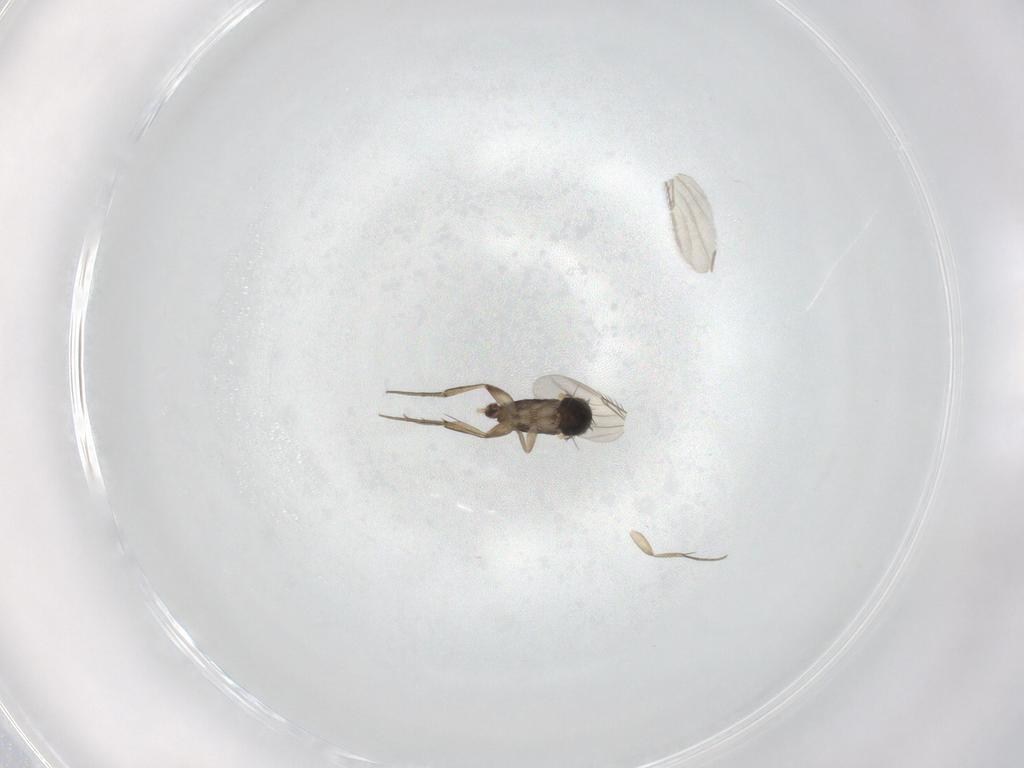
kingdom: Animalia
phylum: Arthropoda
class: Insecta
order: Diptera
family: Phoridae
